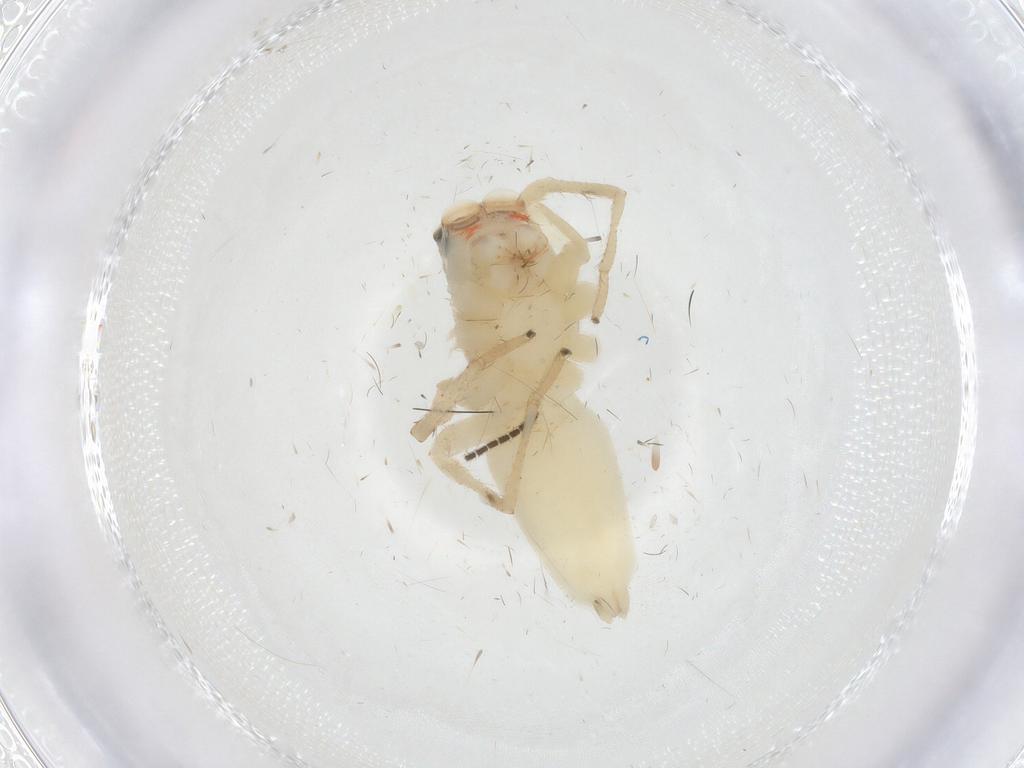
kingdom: Animalia
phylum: Arthropoda
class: Arachnida
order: Araneae
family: Salticidae
